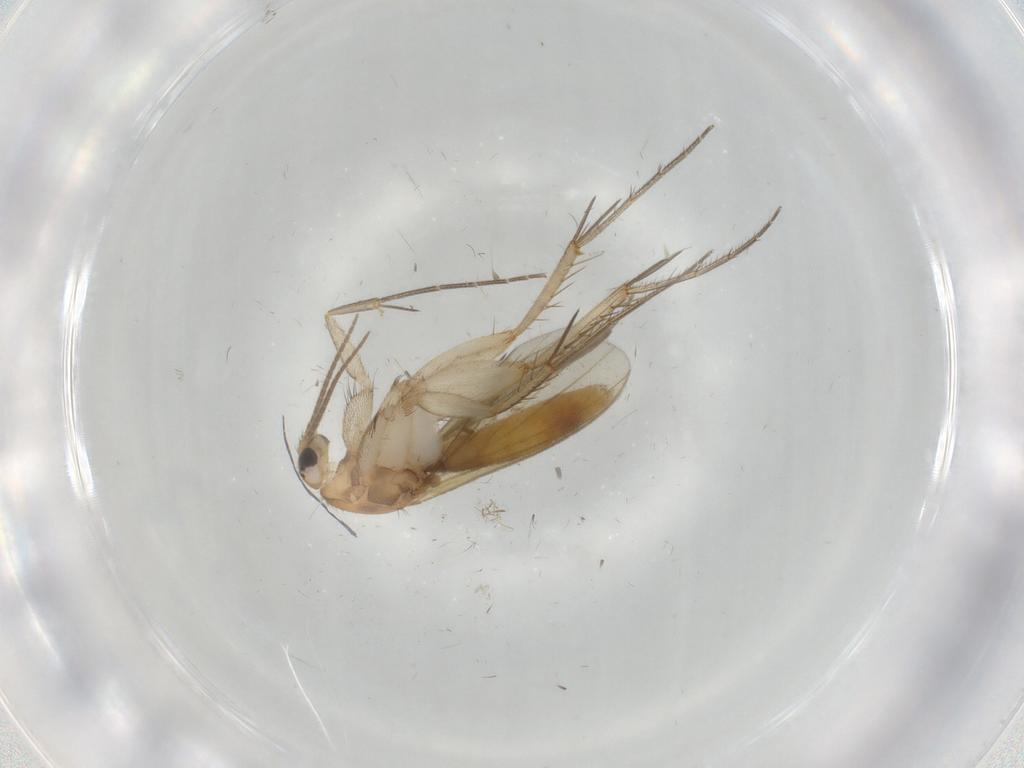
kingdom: Animalia
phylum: Arthropoda
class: Insecta
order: Diptera
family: Mycetophilidae
